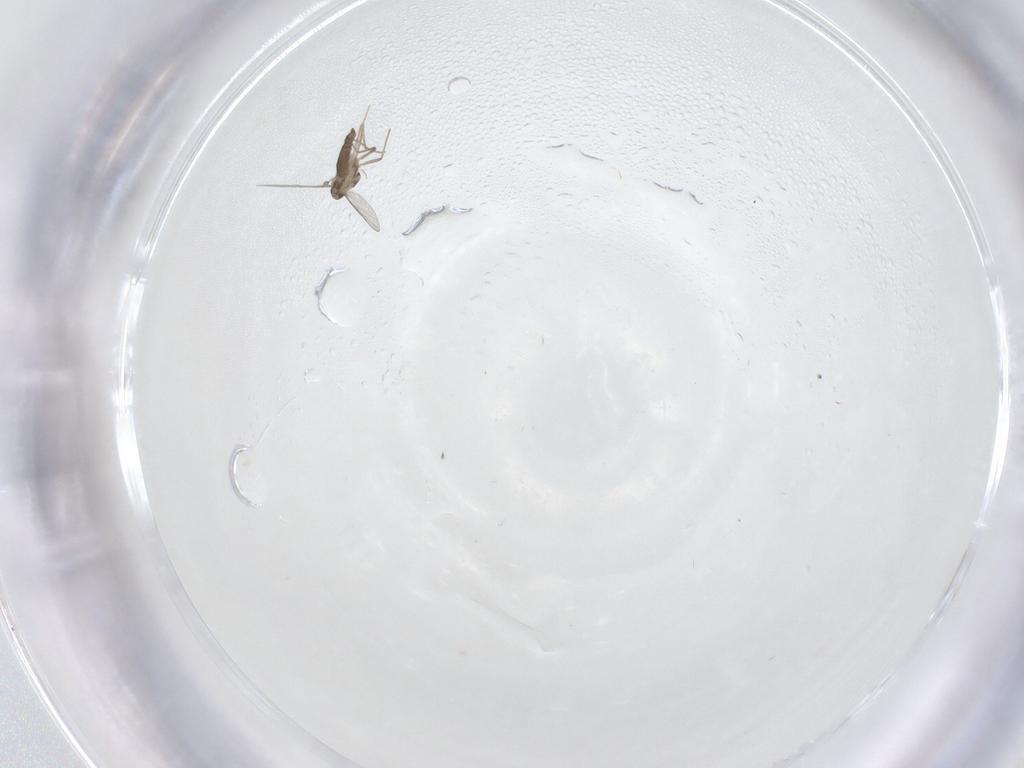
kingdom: Animalia
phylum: Arthropoda
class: Insecta
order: Diptera
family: Chironomidae
